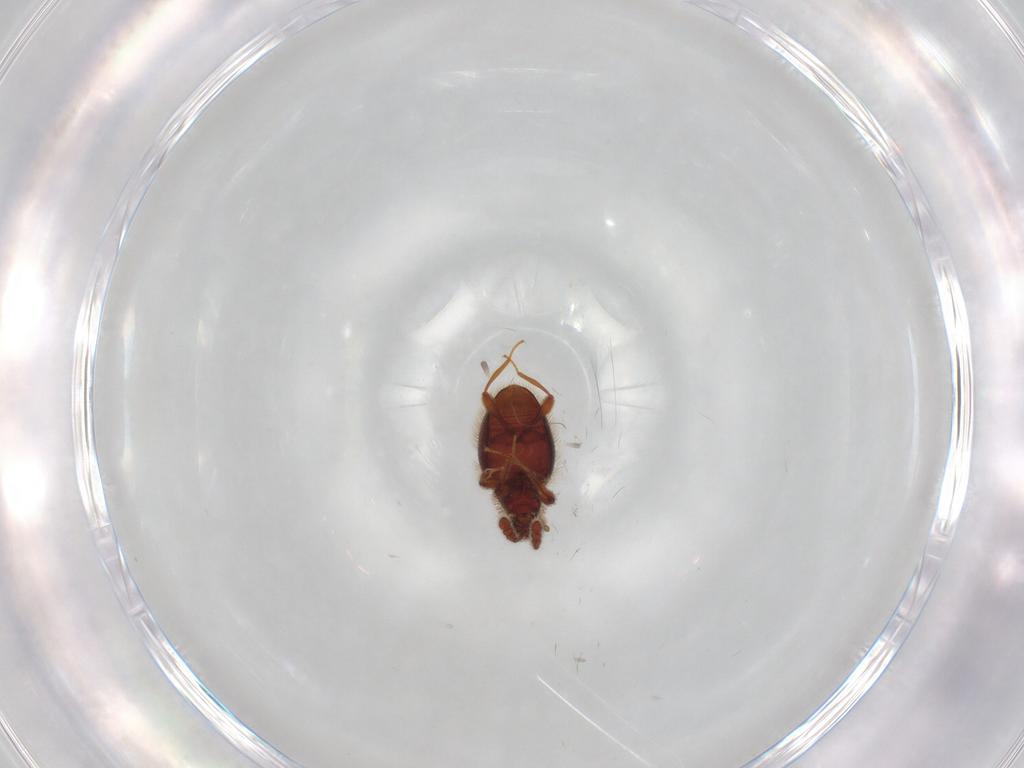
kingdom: Animalia
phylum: Arthropoda
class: Insecta
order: Coleoptera
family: Staphylinidae
